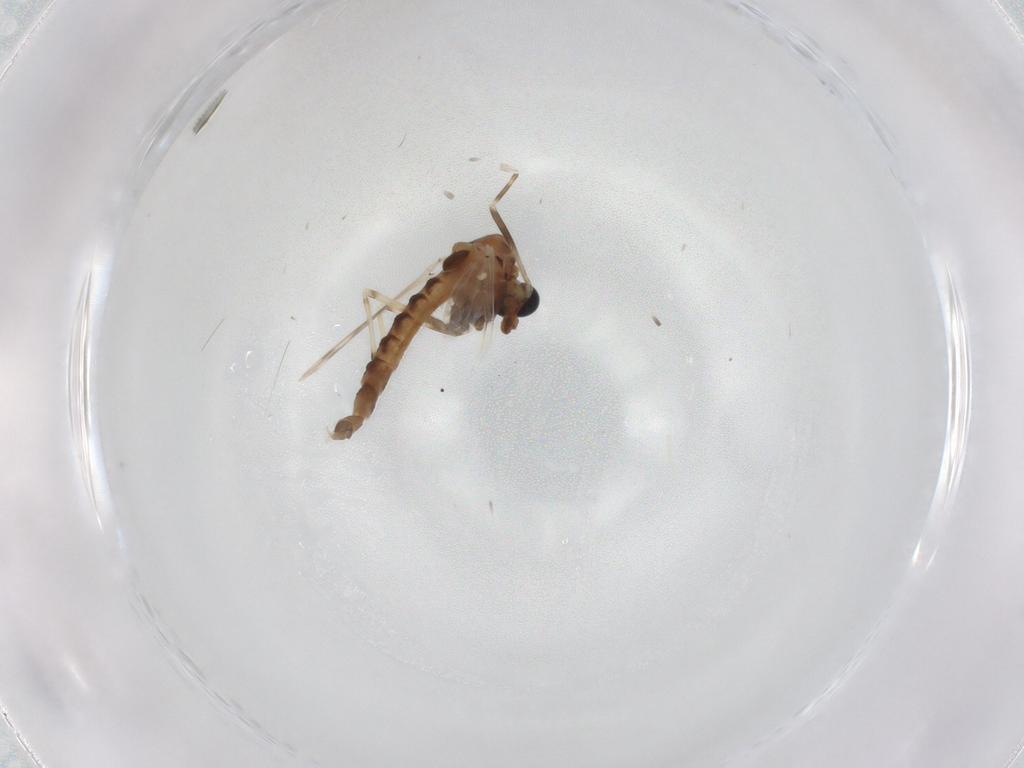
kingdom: Animalia
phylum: Arthropoda
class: Insecta
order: Diptera
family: Chironomidae
